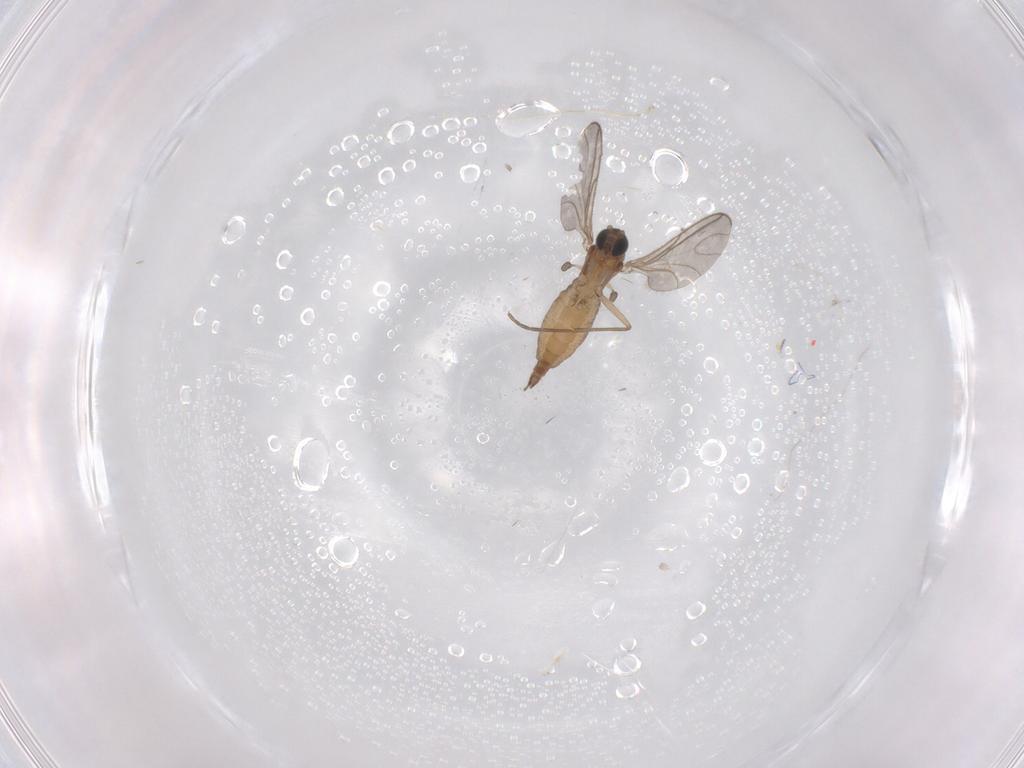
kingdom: Animalia
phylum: Arthropoda
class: Insecta
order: Diptera
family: Sciaridae
